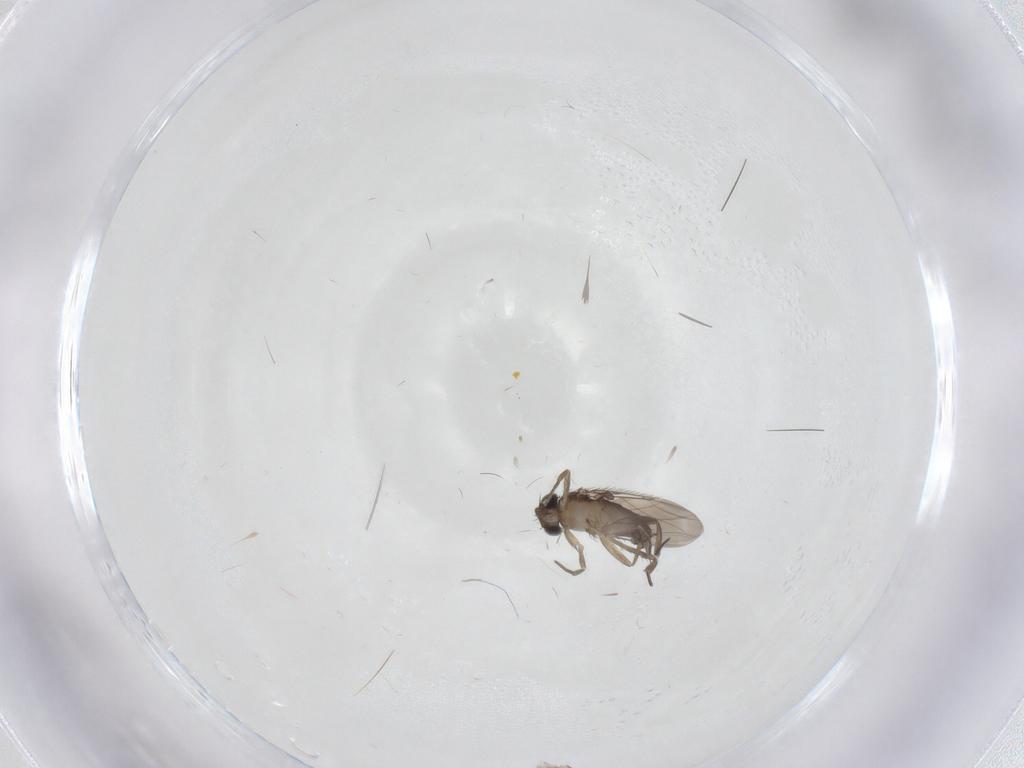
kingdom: Animalia
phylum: Arthropoda
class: Insecta
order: Diptera
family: Phoridae
